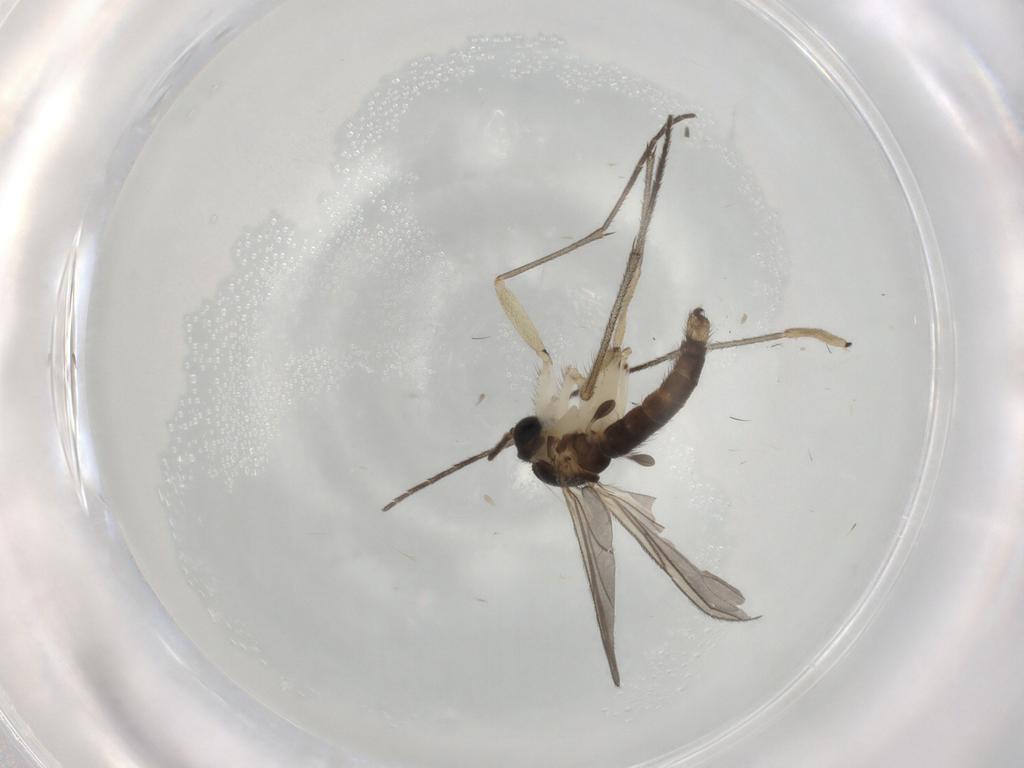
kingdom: Animalia
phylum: Arthropoda
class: Insecta
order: Diptera
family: Sciaridae
